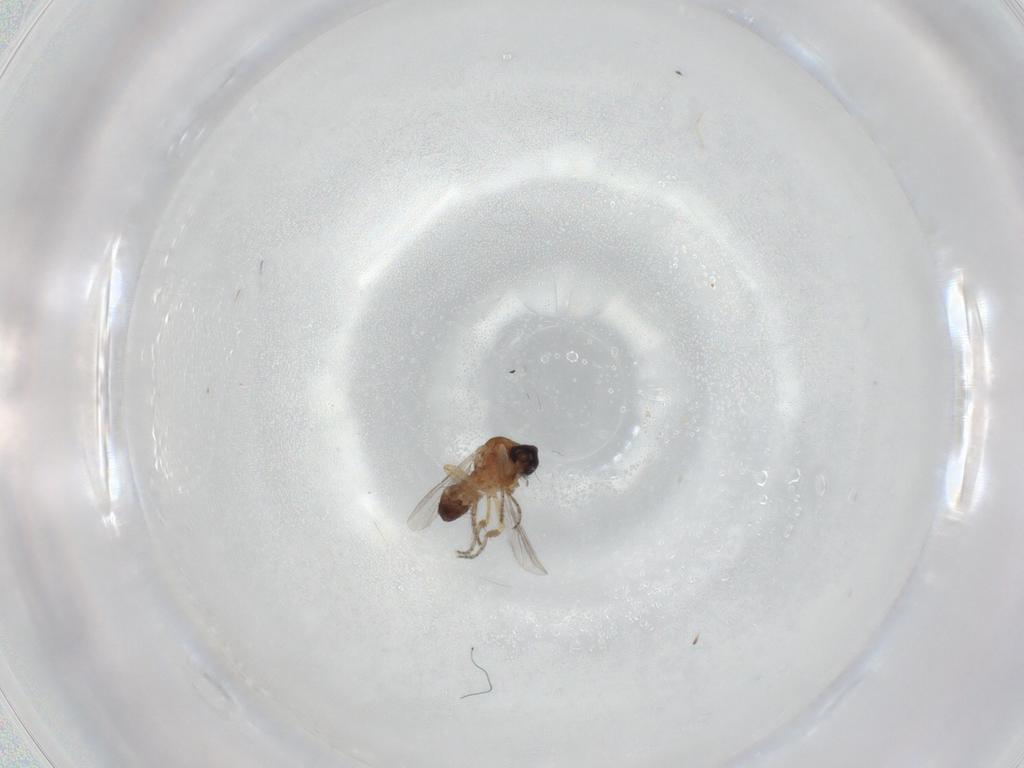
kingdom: Animalia
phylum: Arthropoda
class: Insecta
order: Diptera
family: Ceratopogonidae
